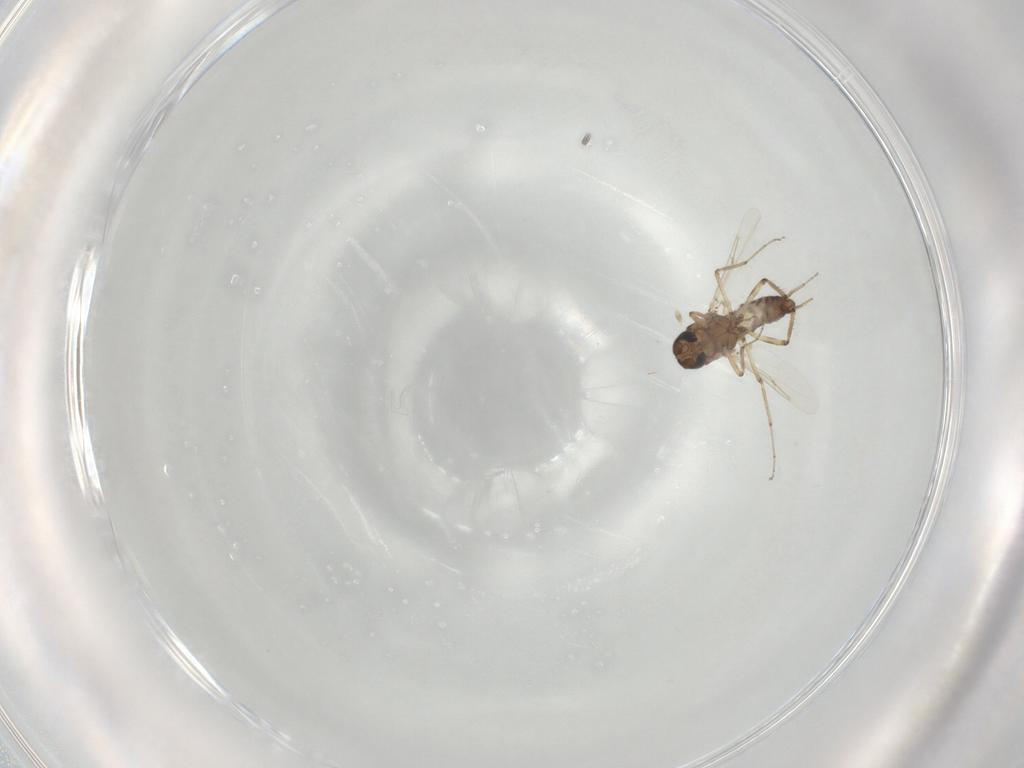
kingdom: Animalia
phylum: Arthropoda
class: Insecta
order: Diptera
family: Ceratopogonidae
